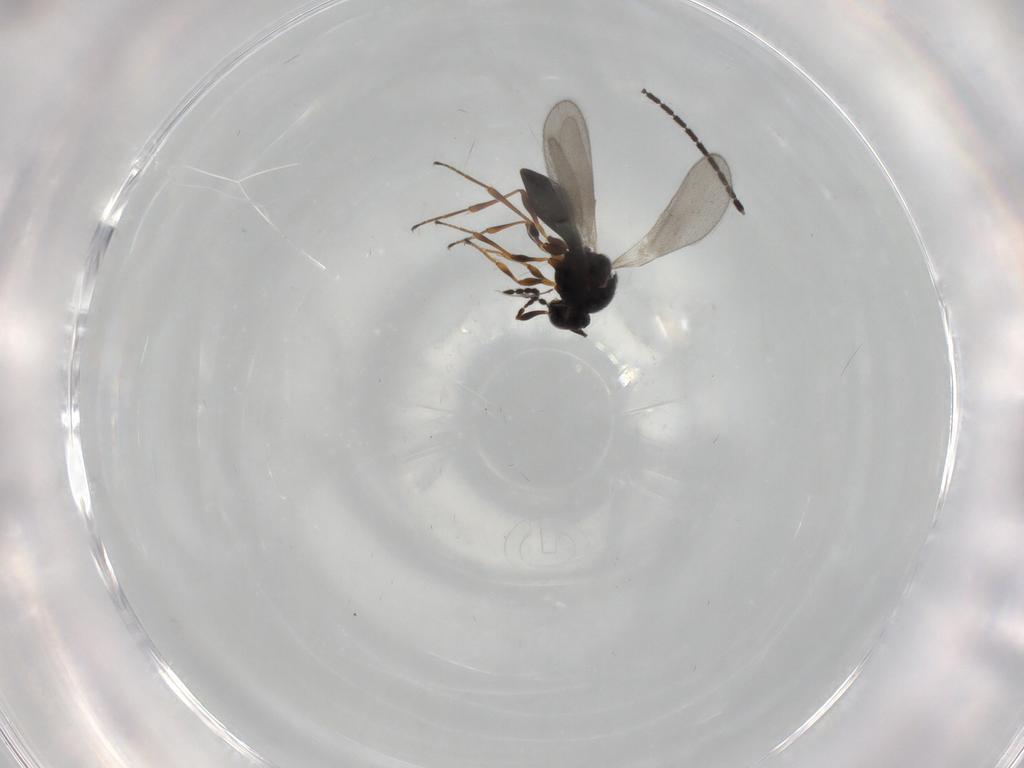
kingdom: Animalia
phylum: Arthropoda
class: Insecta
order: Hymenoptera
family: Platygastridae
